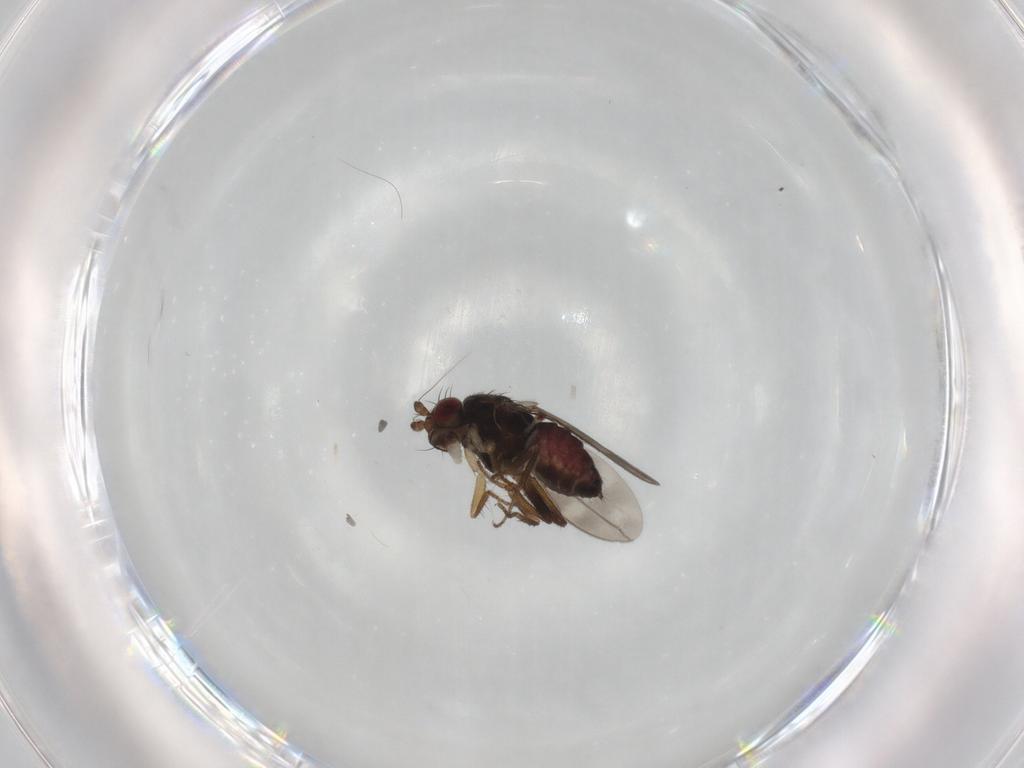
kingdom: Animalia
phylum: Arthropoda
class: Insecta
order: Diptera
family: Sphaeroceridae
